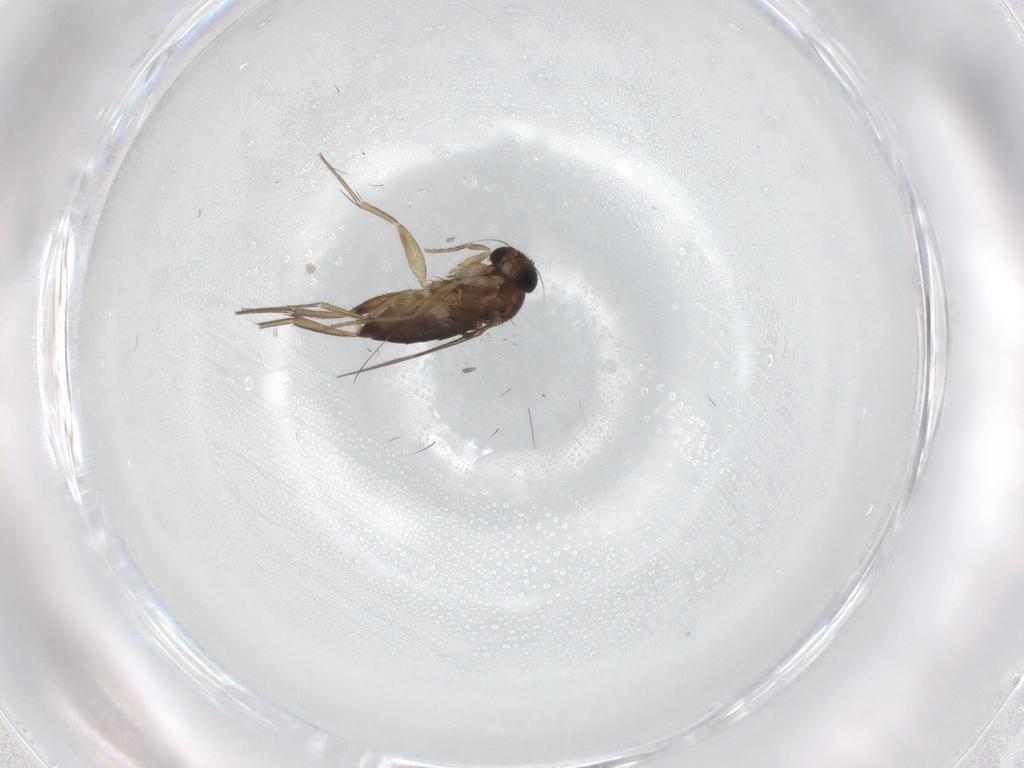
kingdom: Animalia
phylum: Arthropoda
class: Insecta
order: Diptera
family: Phoridae
